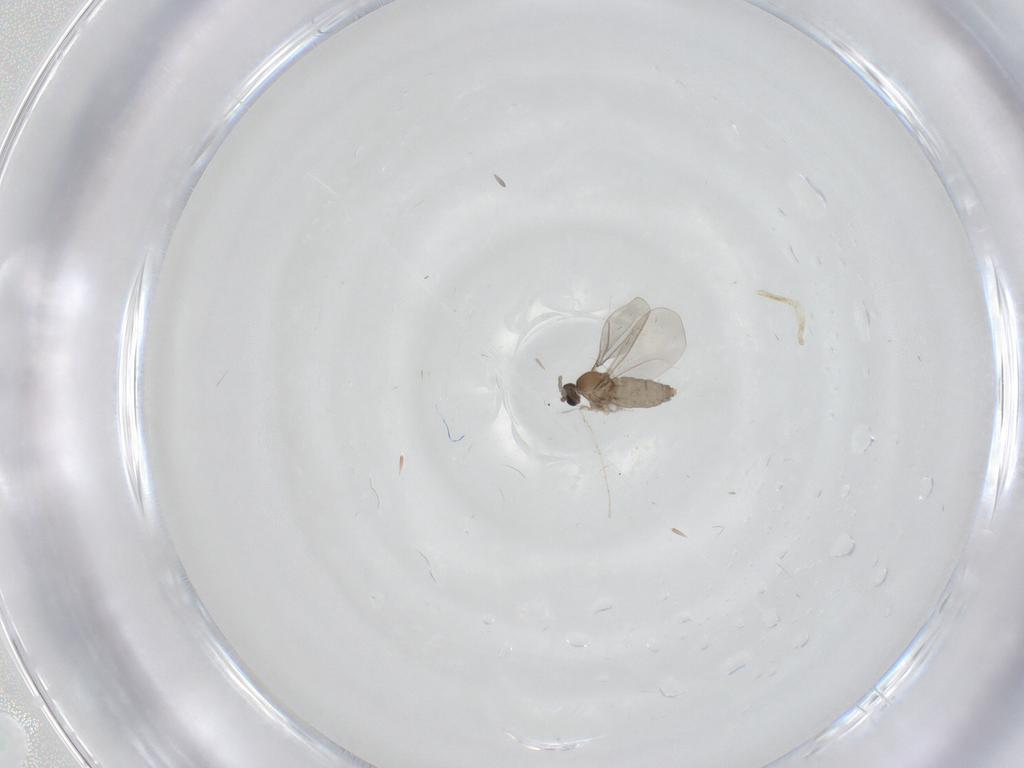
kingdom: Animalia
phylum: Arthropoda
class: Insecta
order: Diptera
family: Cecidomyiidae
